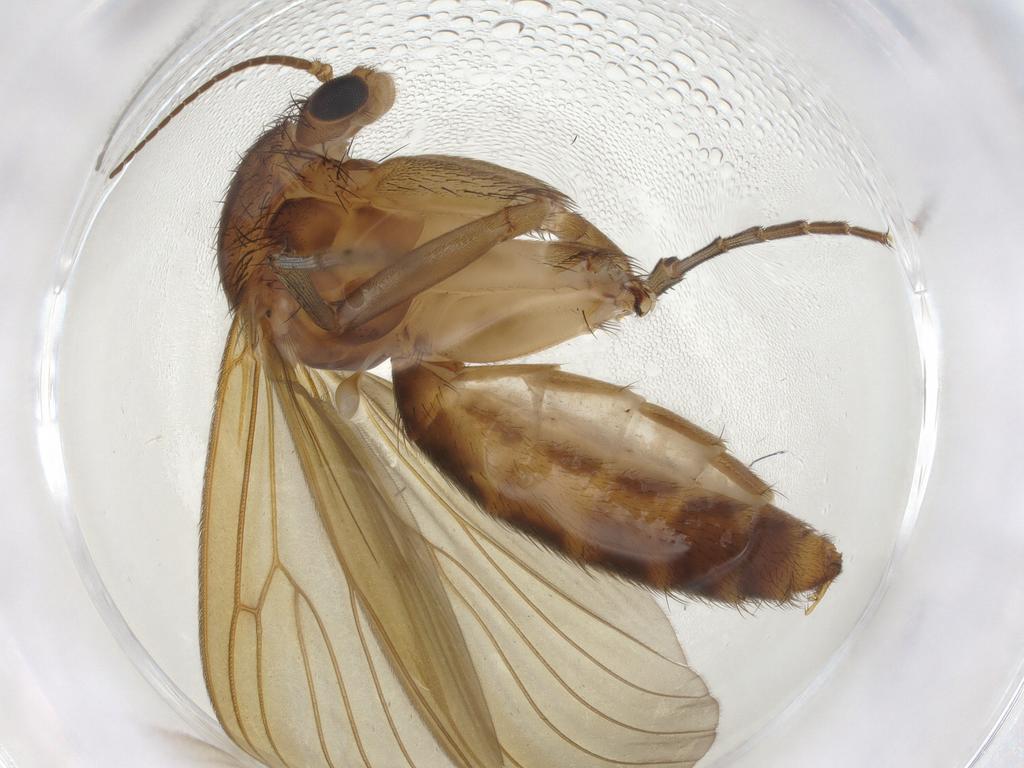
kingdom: Animalia
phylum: Arthropoda
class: Insecta
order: Diptera
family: Mycetophilidae
